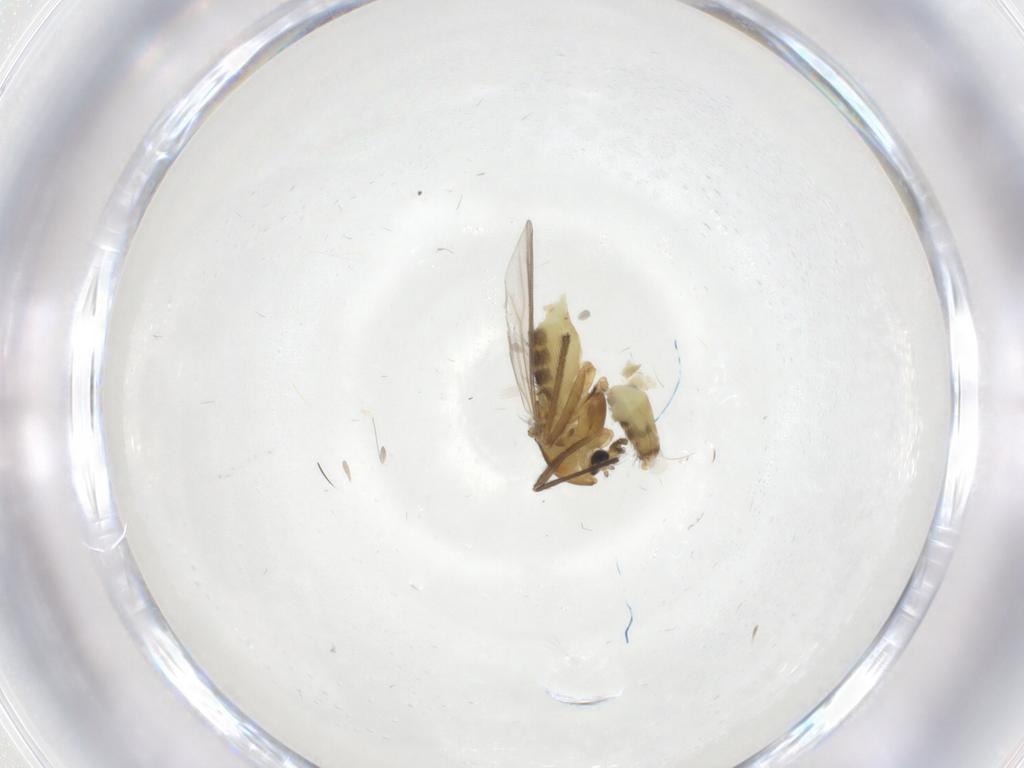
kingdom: Animalia
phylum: Arthropoda
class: Insecta
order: Diptera
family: Chironomidae
